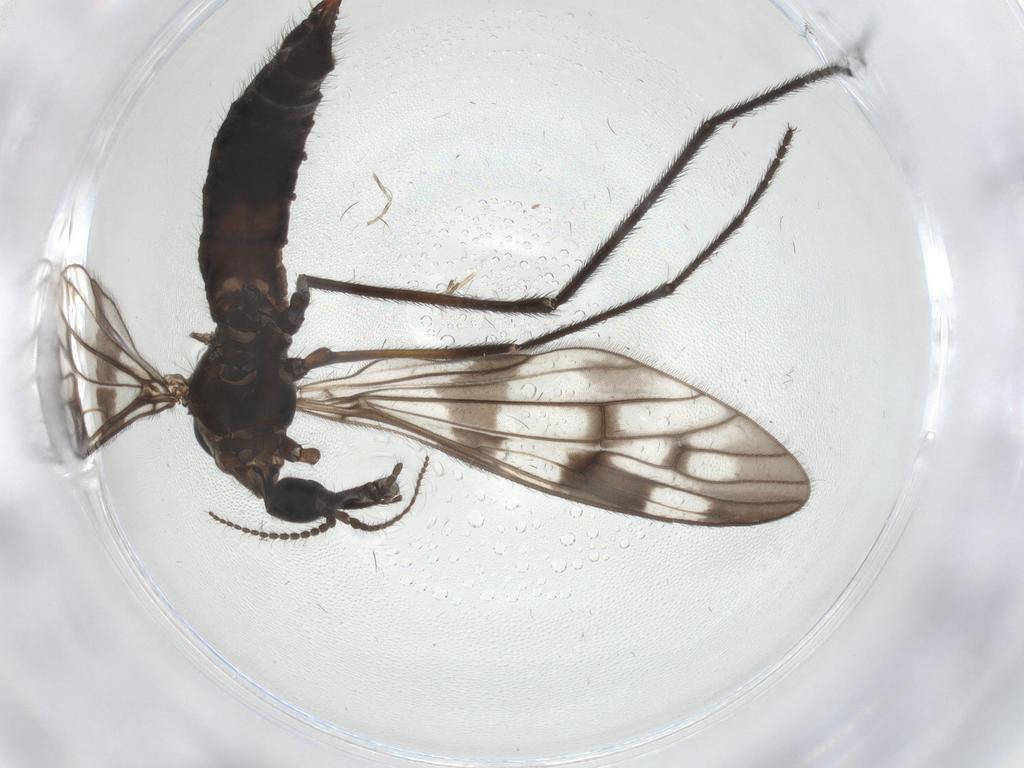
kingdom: Animalia
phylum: Arthropoda
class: Insecta
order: Diptera
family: Limoniidae
